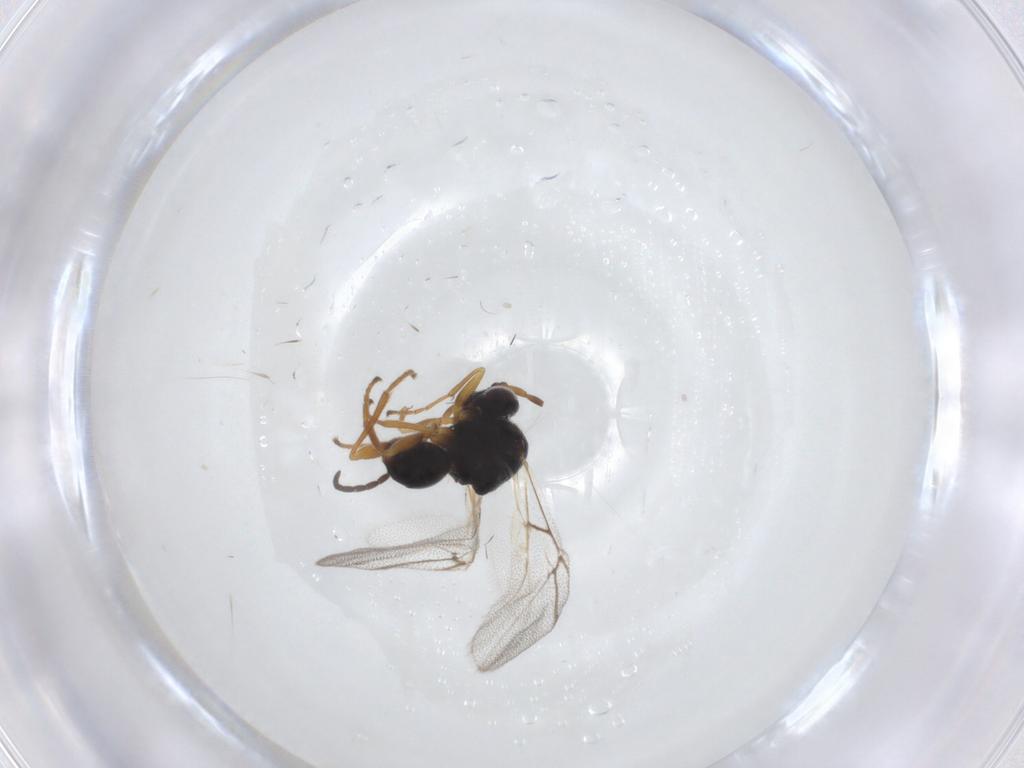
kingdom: Animalia
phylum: Arthropoda
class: Insecta
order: Hymenoptera
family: Cynipidae
